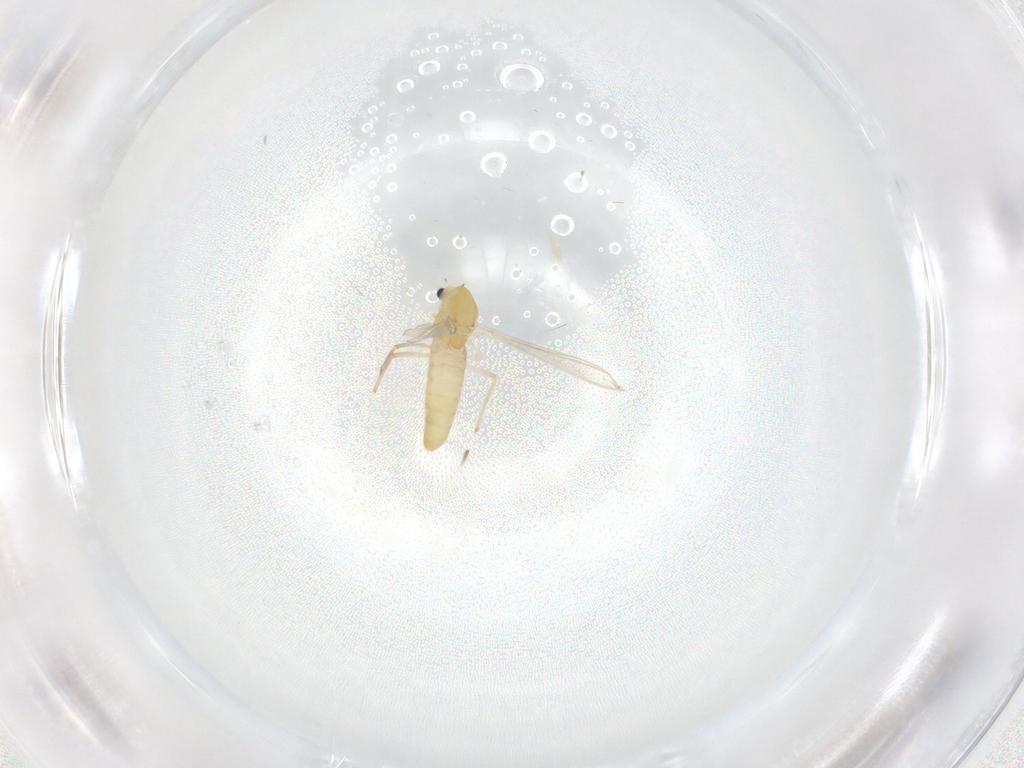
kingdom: Animalia
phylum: Arthropoda
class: Insecta
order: Diptera
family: Chironomidae
